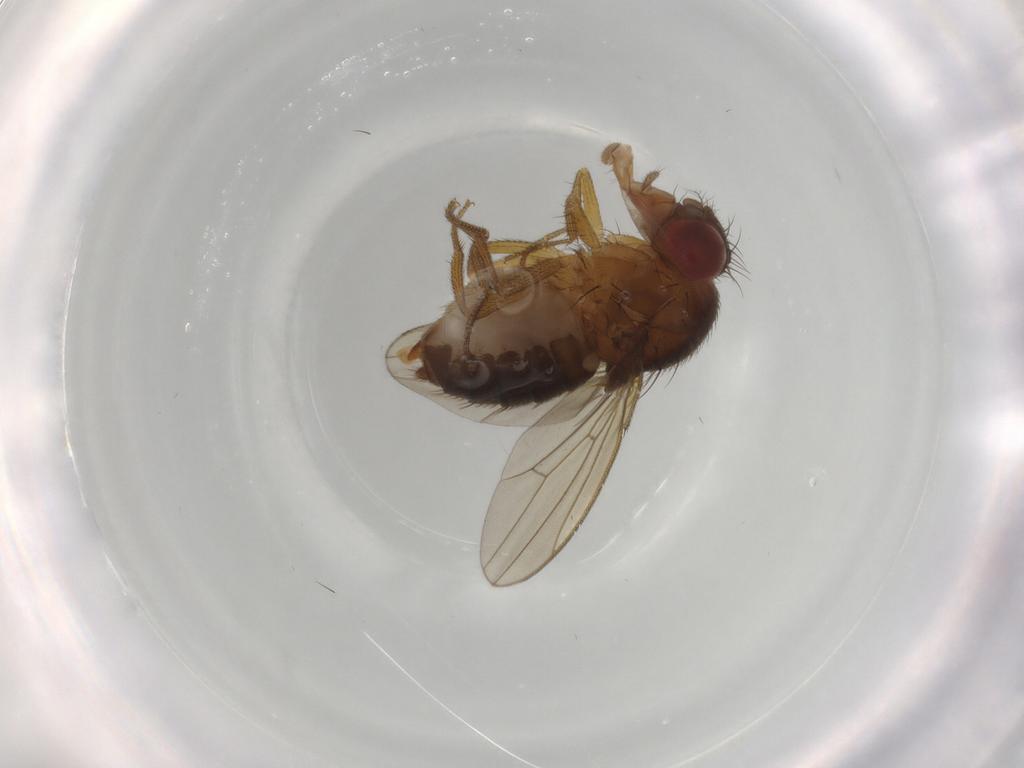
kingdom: Animalia
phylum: Arthropoda
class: Insecta
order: Diptera
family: Drosophilidae
